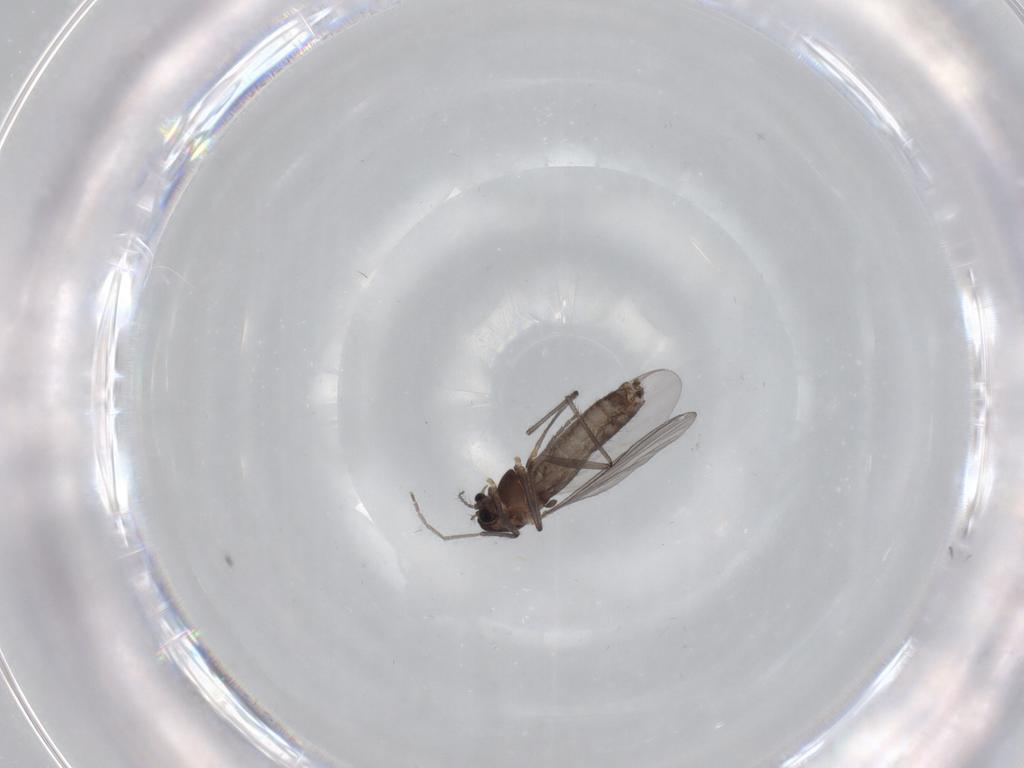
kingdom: Animalia
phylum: Arthropoda
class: Insecta
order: Diptera
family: Chironomidae
